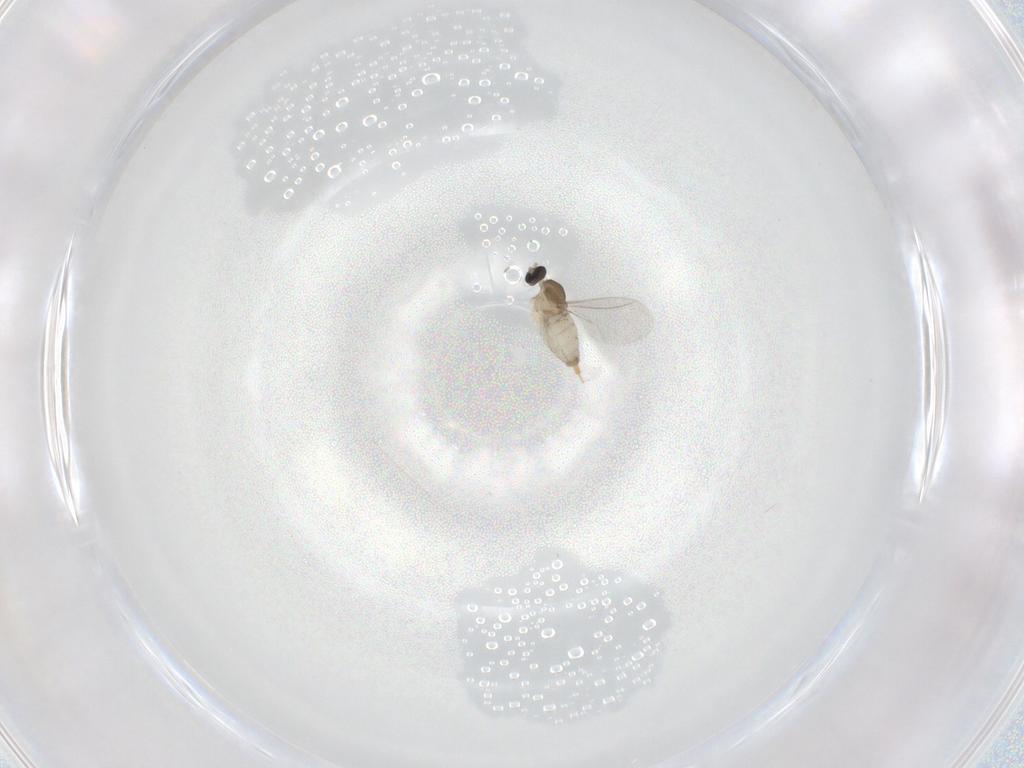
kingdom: Animalia
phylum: Arthropoda
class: Insecta
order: Diptera
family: Cecidomyiidae
